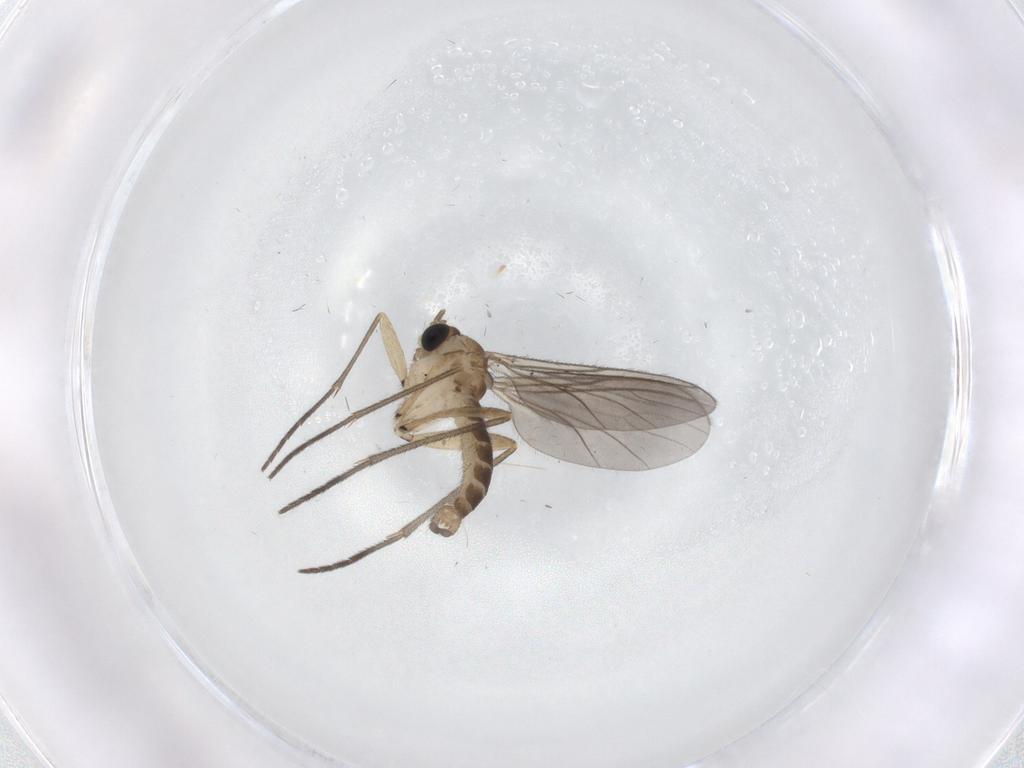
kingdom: Animalia
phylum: Arthropoda
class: Insecta
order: Diptera
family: Sciaridae
